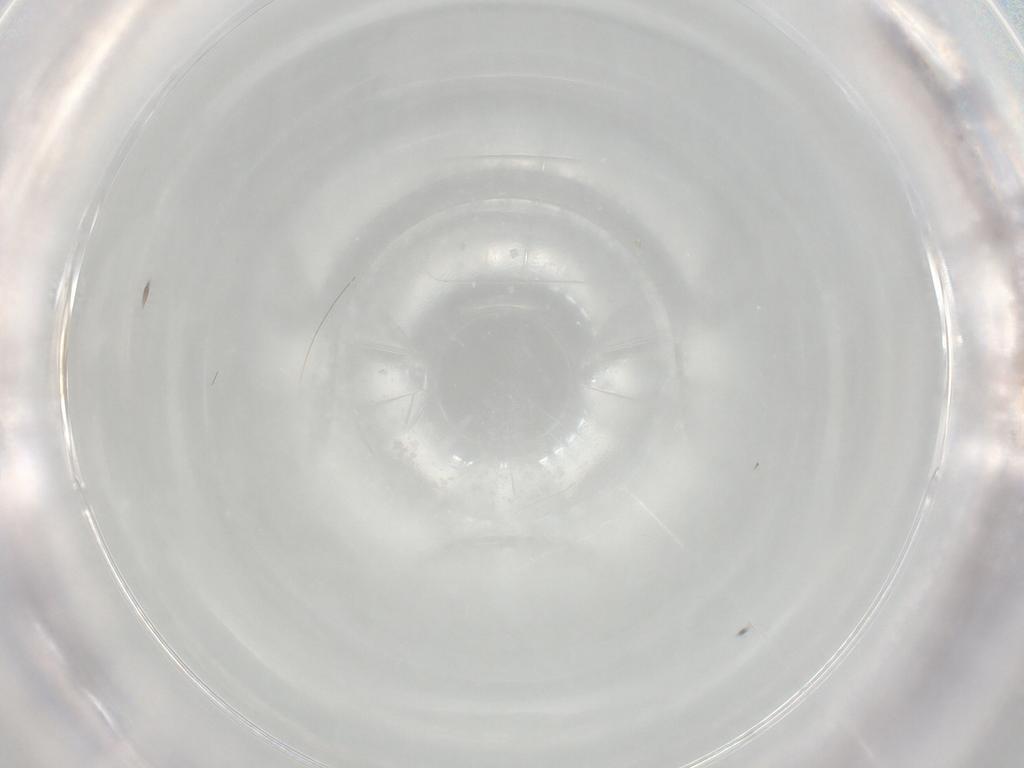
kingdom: Animalia
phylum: Arthropoda
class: Insecta
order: Hymenoptera
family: Ichneumonidae
